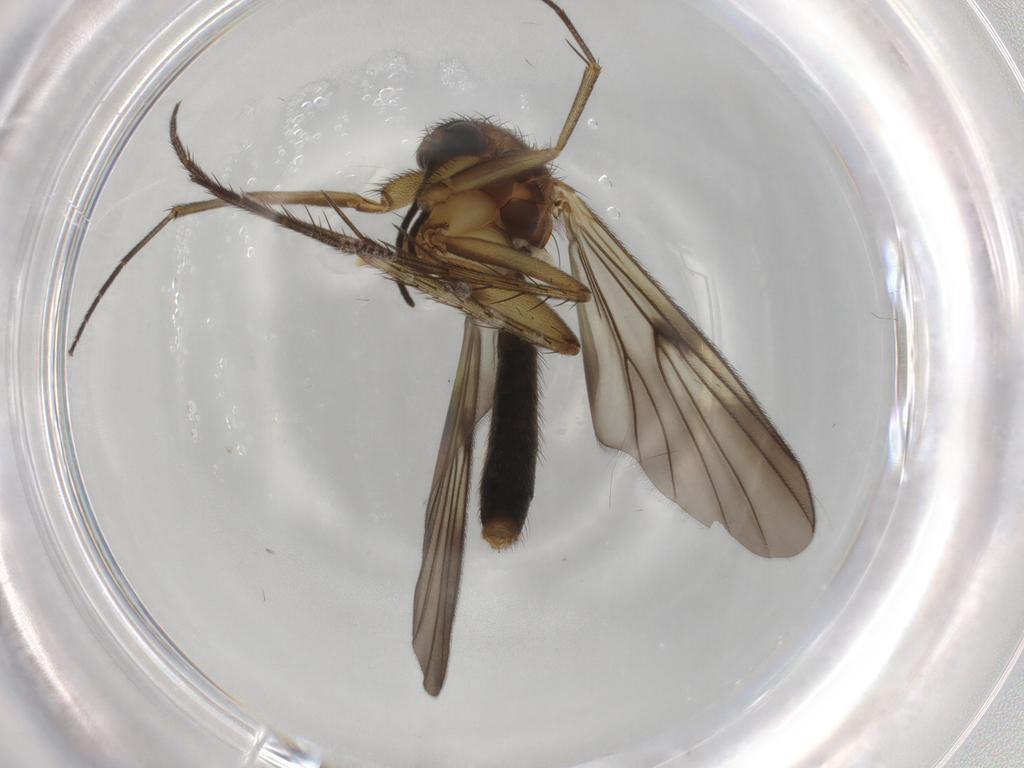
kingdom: Animalia
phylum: Arthropoda
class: Insecta
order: Diptera
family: Mycetophilidae
